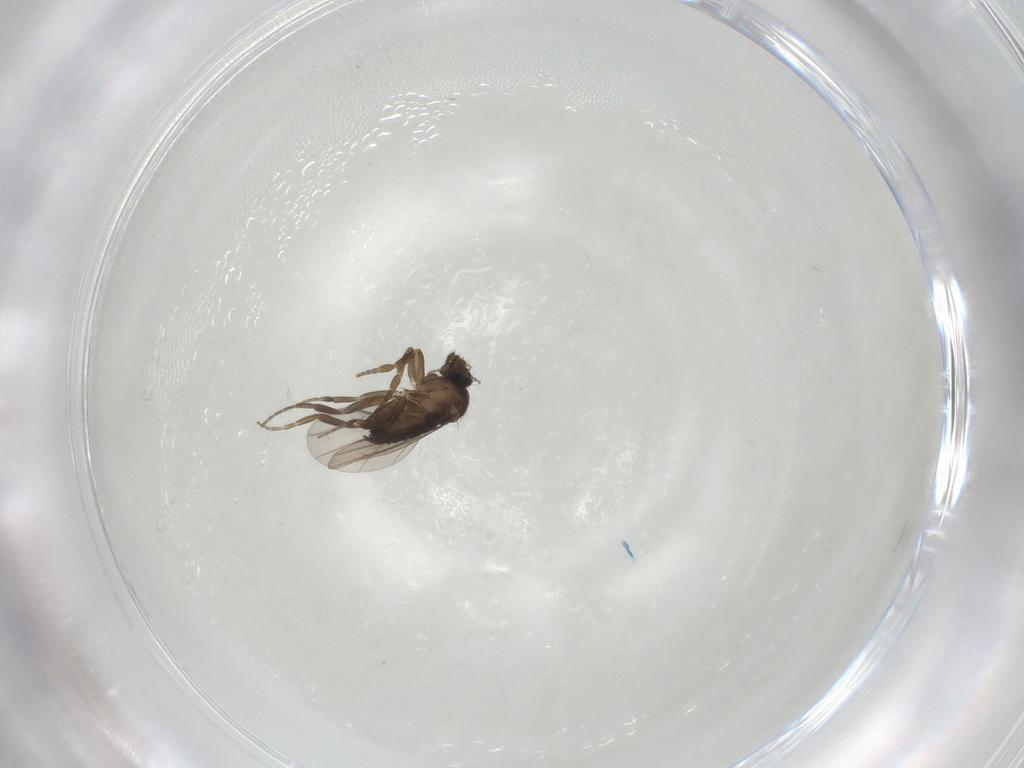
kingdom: Animalia
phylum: Arthropoda
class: Insecta
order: Diptera
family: Phoridae
